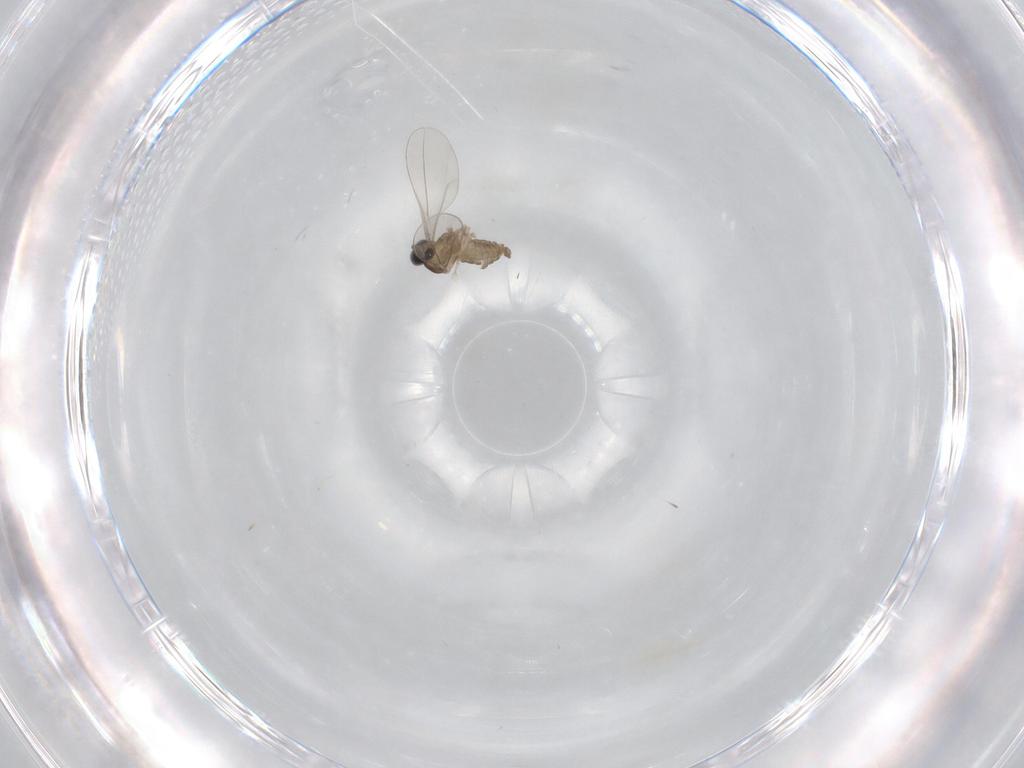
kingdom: Animalia
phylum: Arthropoda
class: Insecta
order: Diptera
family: Cecidomyiidae
